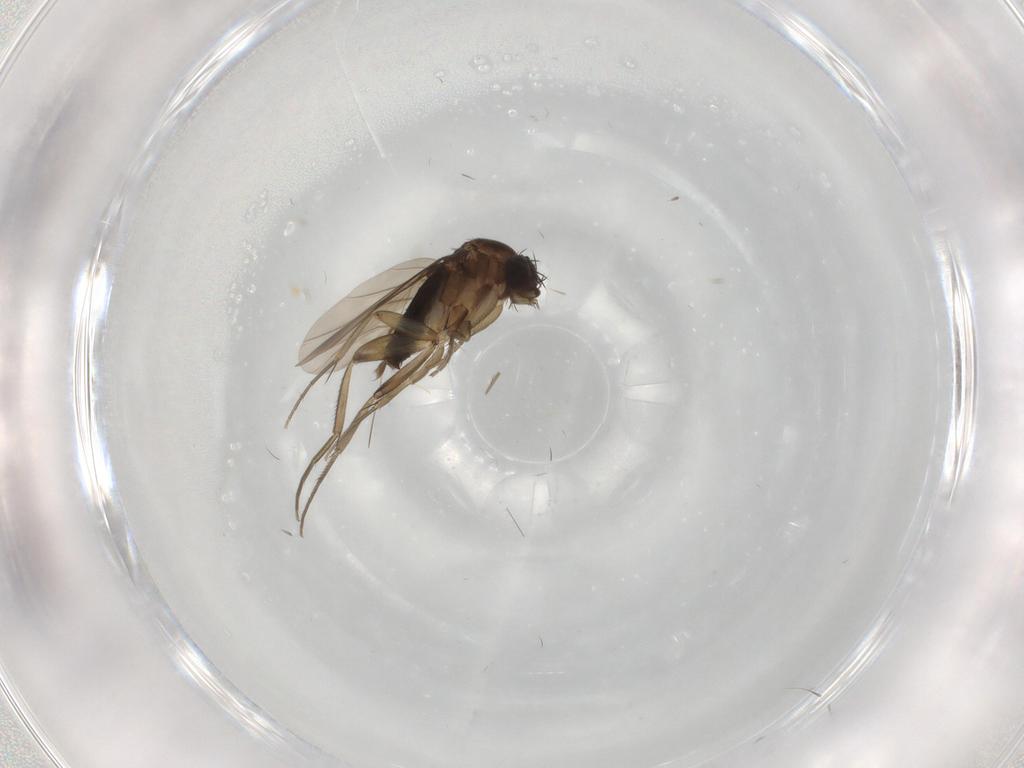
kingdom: Animalia
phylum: Arthropoda
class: Insecta
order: Diptera
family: Phoridae
